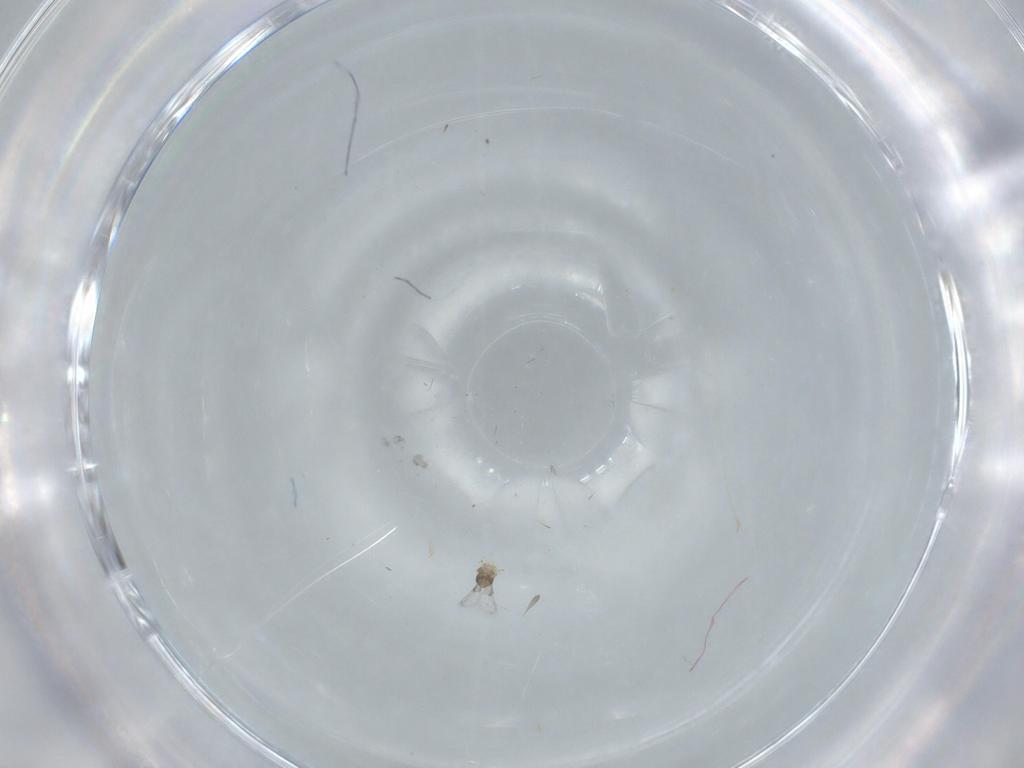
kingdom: Animalia
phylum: Arthropoda
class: Insecta
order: Hymenoptera
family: Trichogrammatidae
